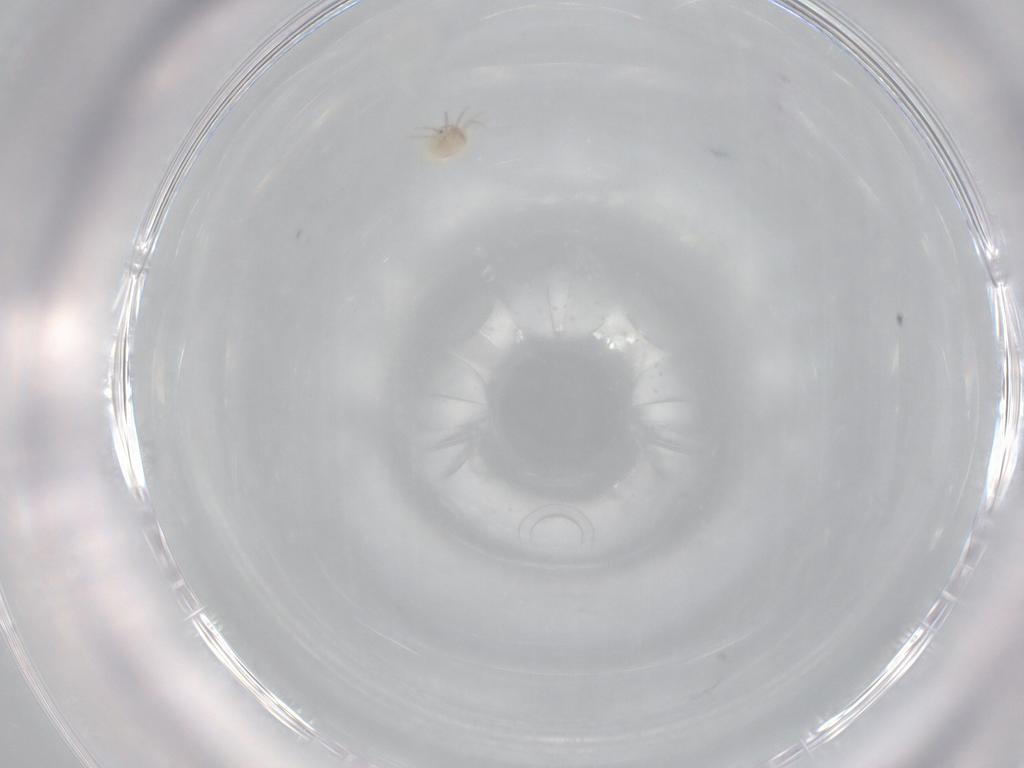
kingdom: Animalia
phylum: Arthropoda
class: Arachnida
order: Trombidiformes
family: Lebertiidae
